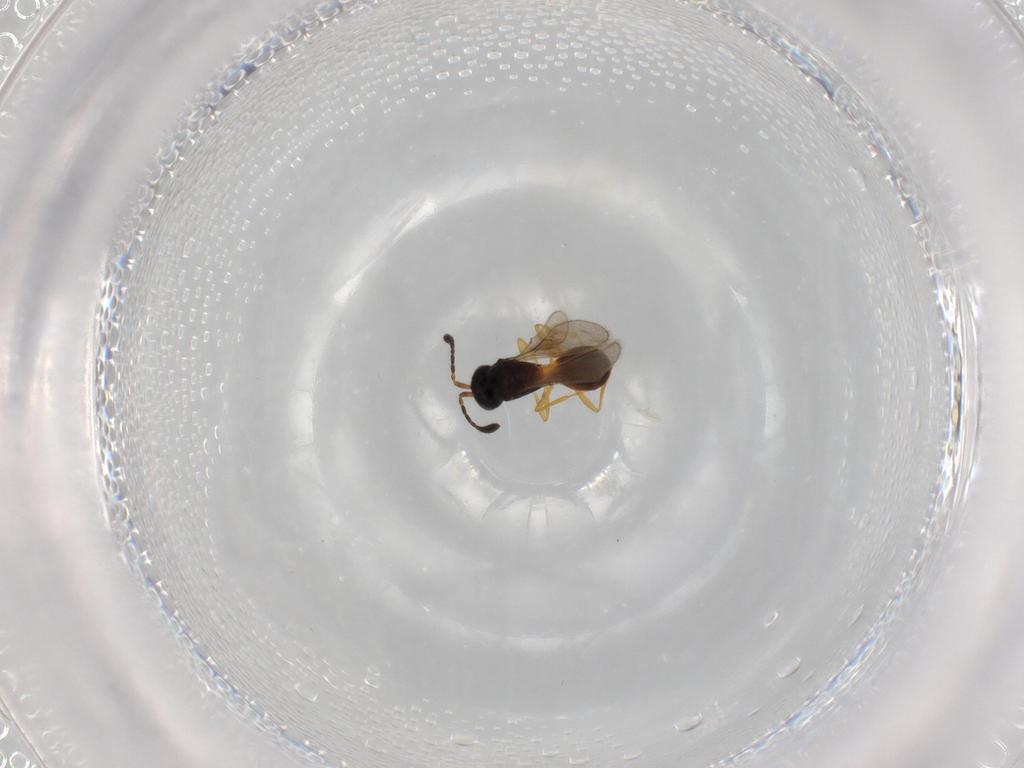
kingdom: Animalia
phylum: Arthropoda
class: Insecta
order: Hymenoptera
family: Scelionidae
